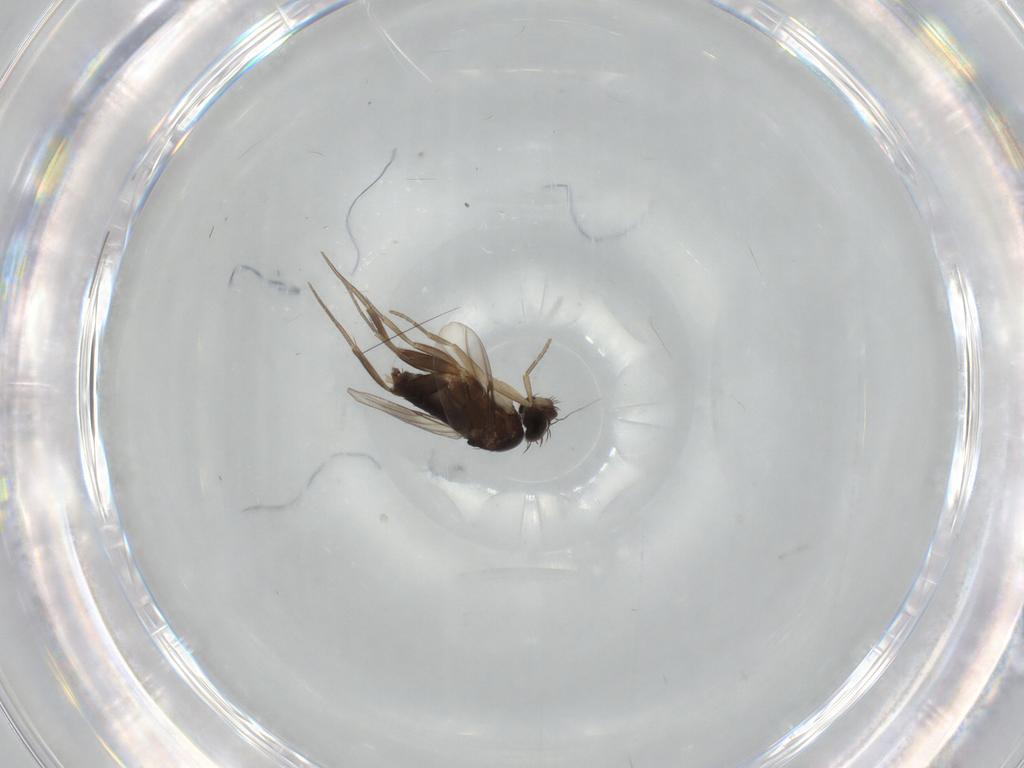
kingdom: Animalia
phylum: Arthropoda
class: Insecta
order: Diptera
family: Phoridae
